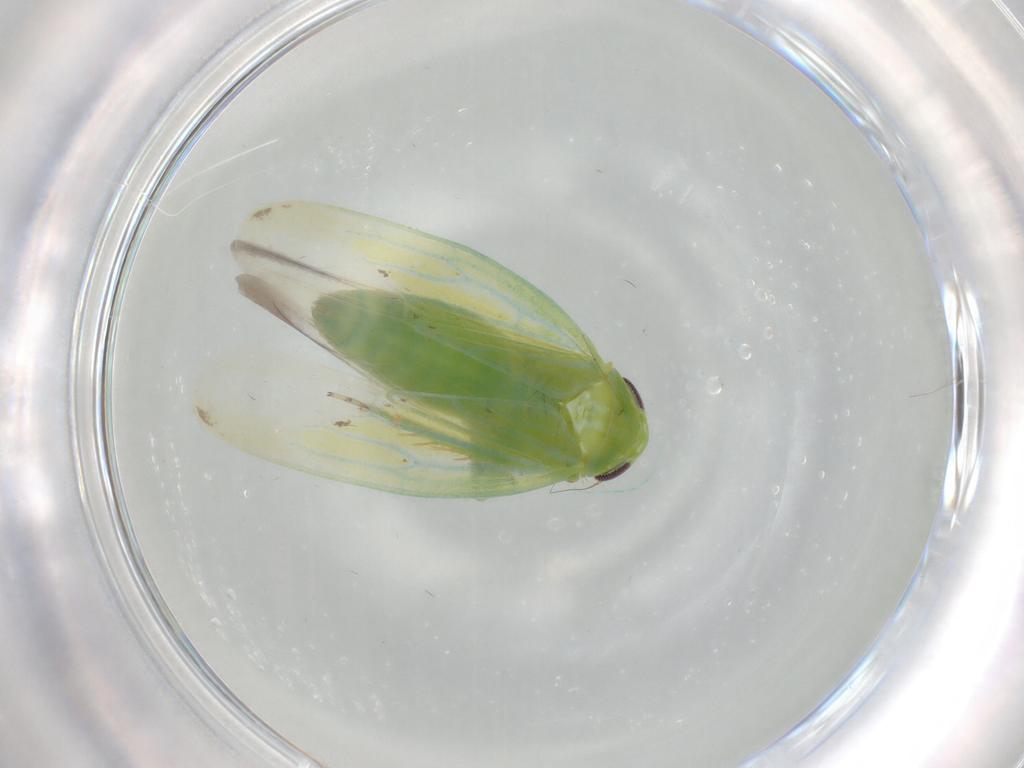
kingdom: Animalia
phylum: Arthropoda
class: Insecta
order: Hemiptera
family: Cicadellidae
